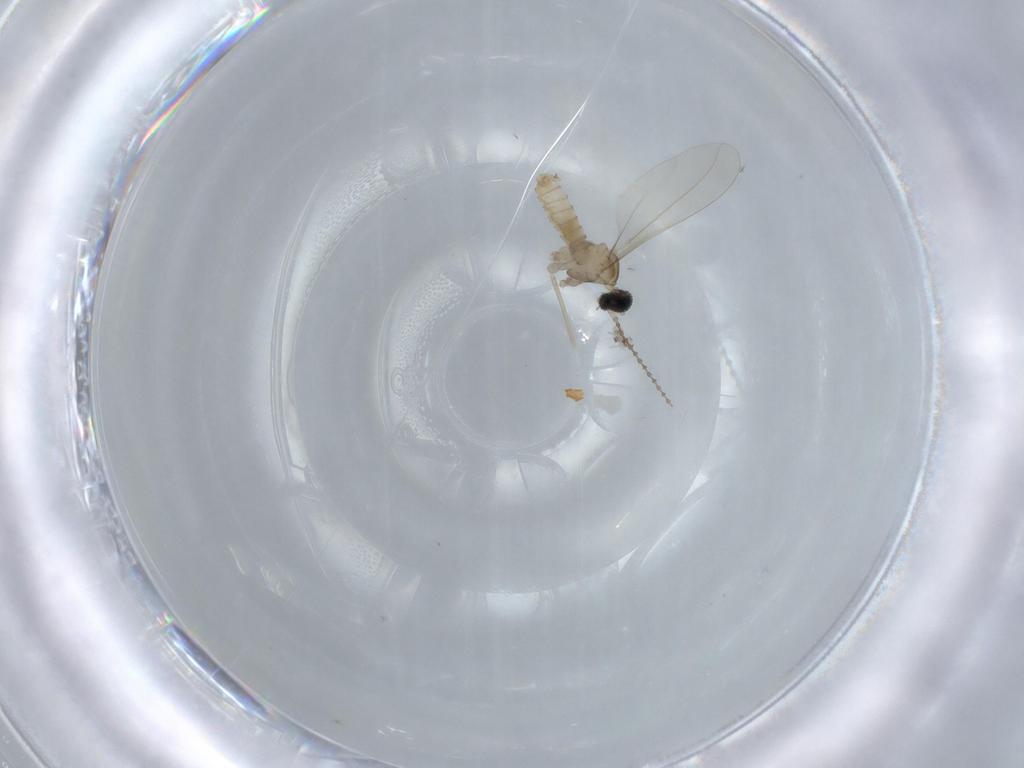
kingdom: Animalia
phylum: Arthropoda
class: Insecta
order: Diptera
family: Cecidomyiidae
